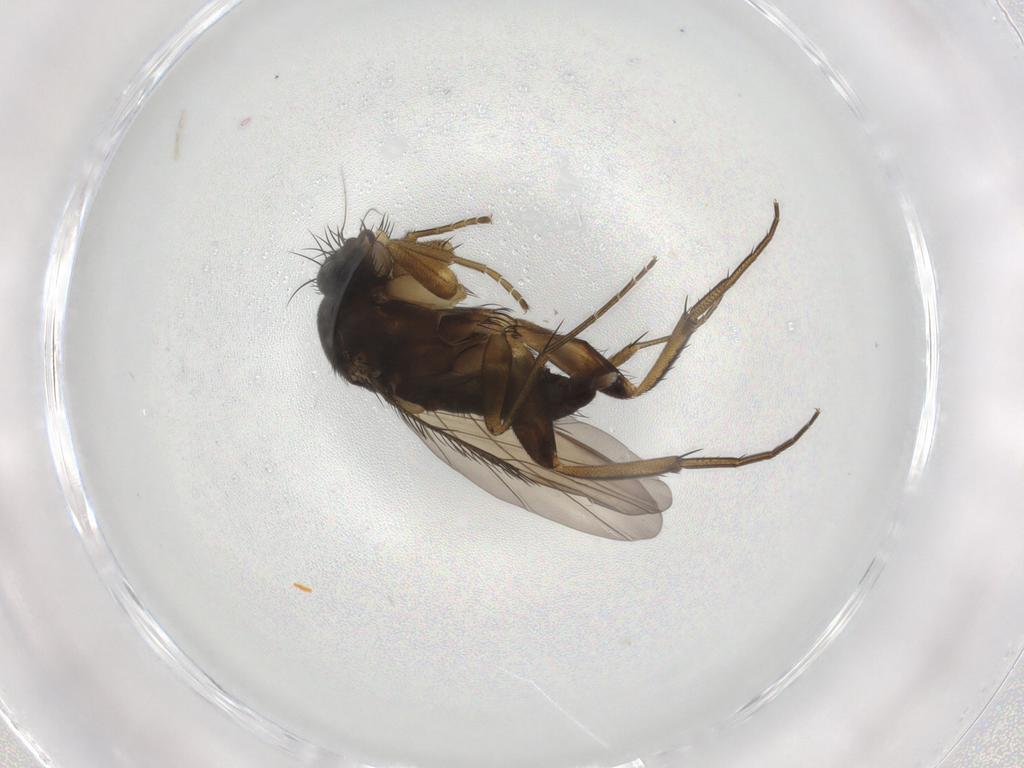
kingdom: Animalia
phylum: Arthropoda
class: Insecta
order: Diptera
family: Phoridae
